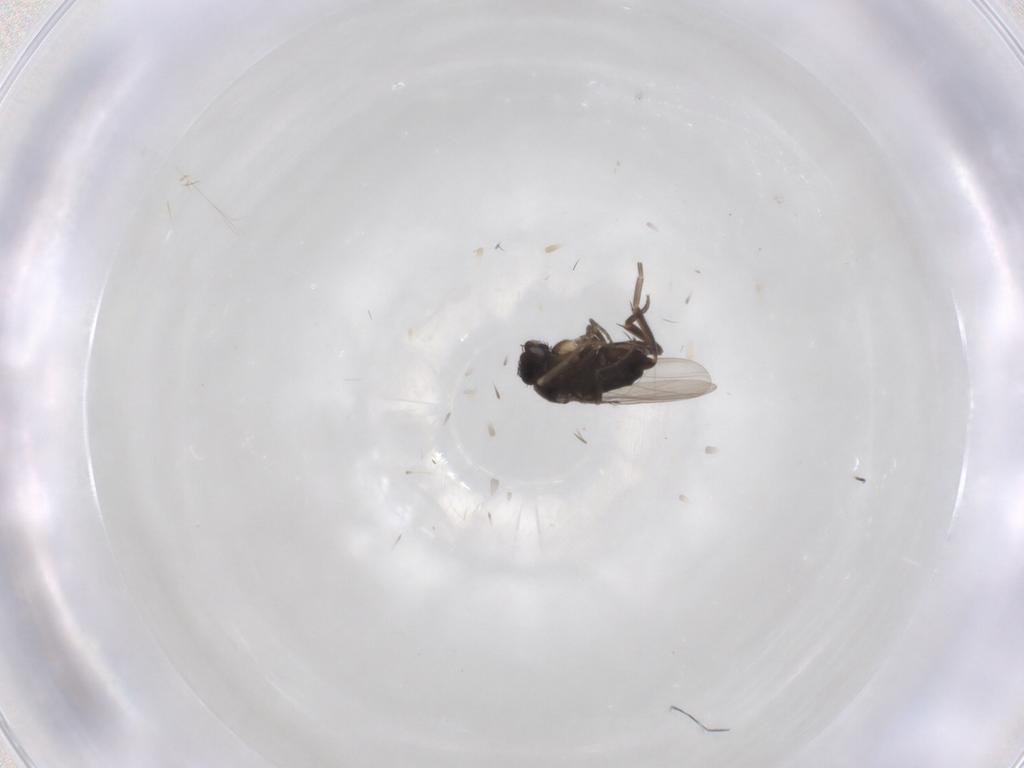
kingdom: Animalia
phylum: Arthropoda
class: Insecta
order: Diptera
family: Phoridae
